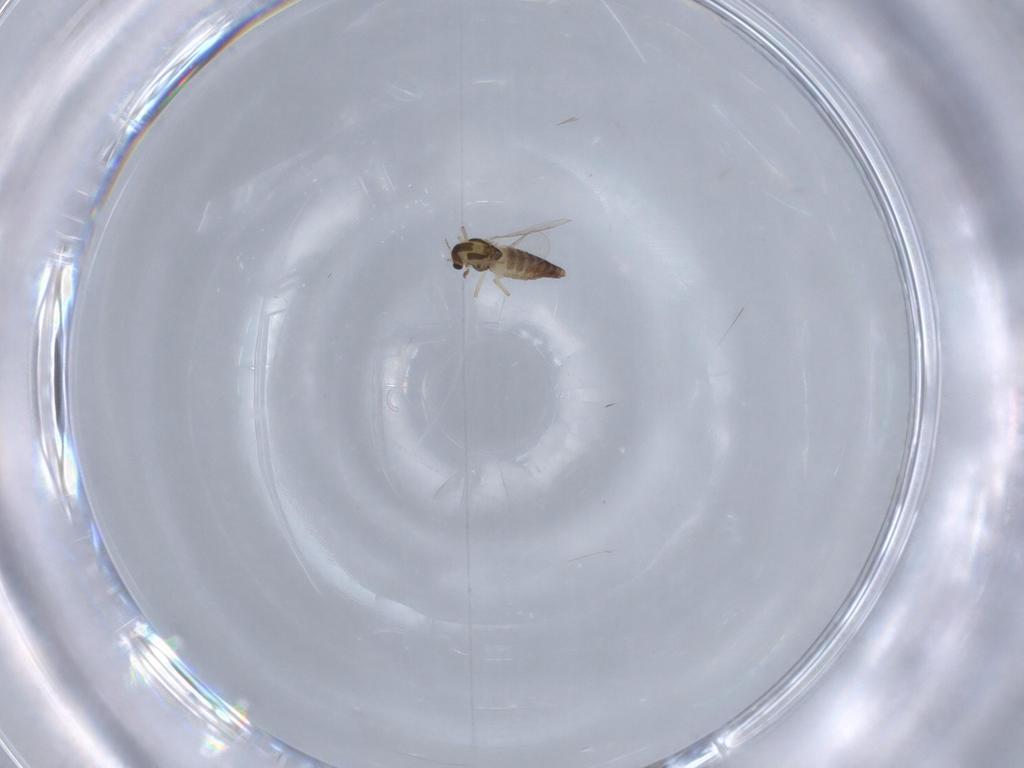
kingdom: Animalia
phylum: Arthropoda
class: Insecta
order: Diptera
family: Chironomidae
